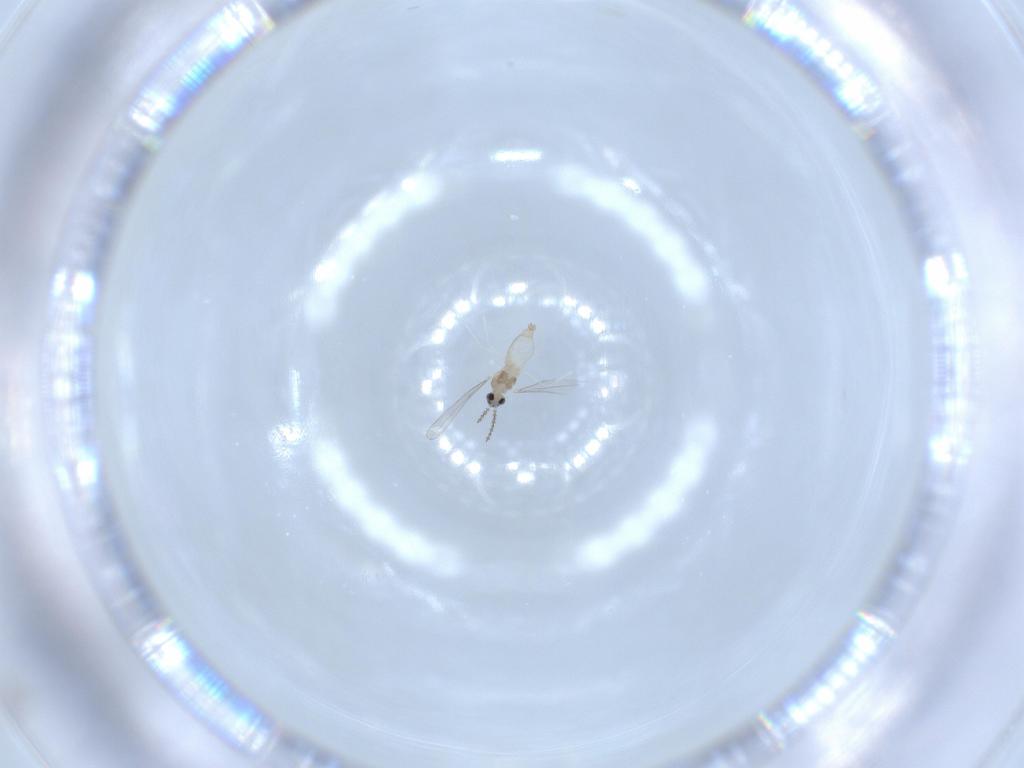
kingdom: Animalia
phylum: Arthropoda
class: Insecta
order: Diptera
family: Cecidomyiidae
